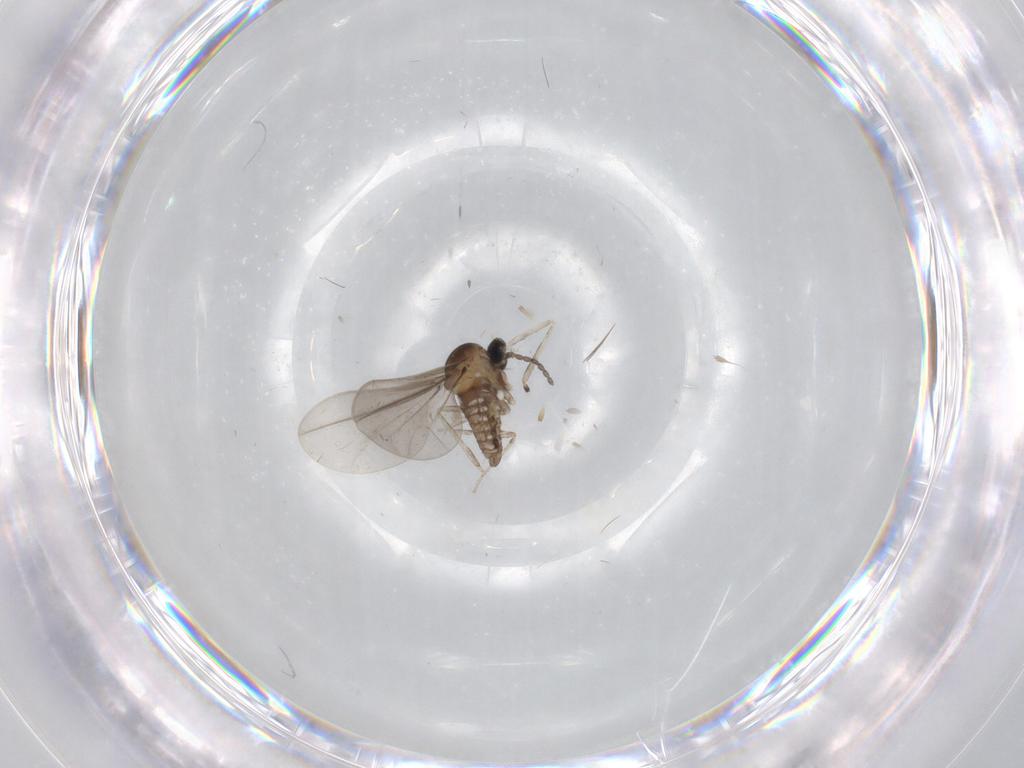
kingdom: Animalia
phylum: Arthropoda
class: Insecta
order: Diptera
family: Cecidomyiidae
